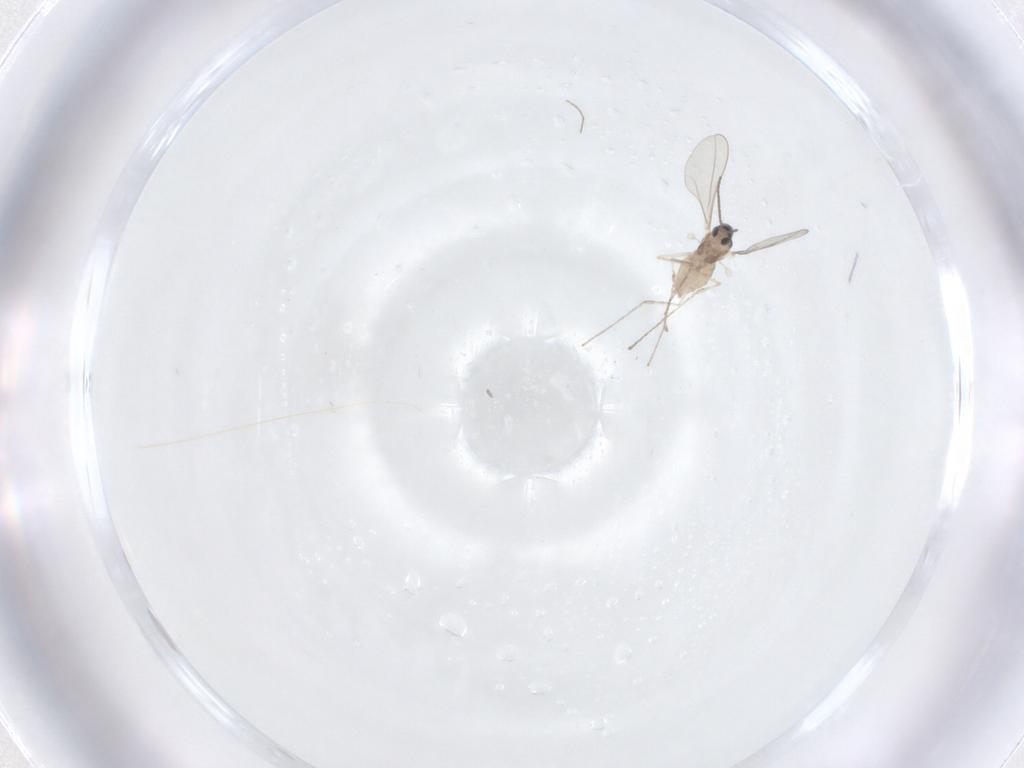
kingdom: Animalia
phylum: Arthropoda
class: Insecta
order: Diptera
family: Cecidomyiidae
